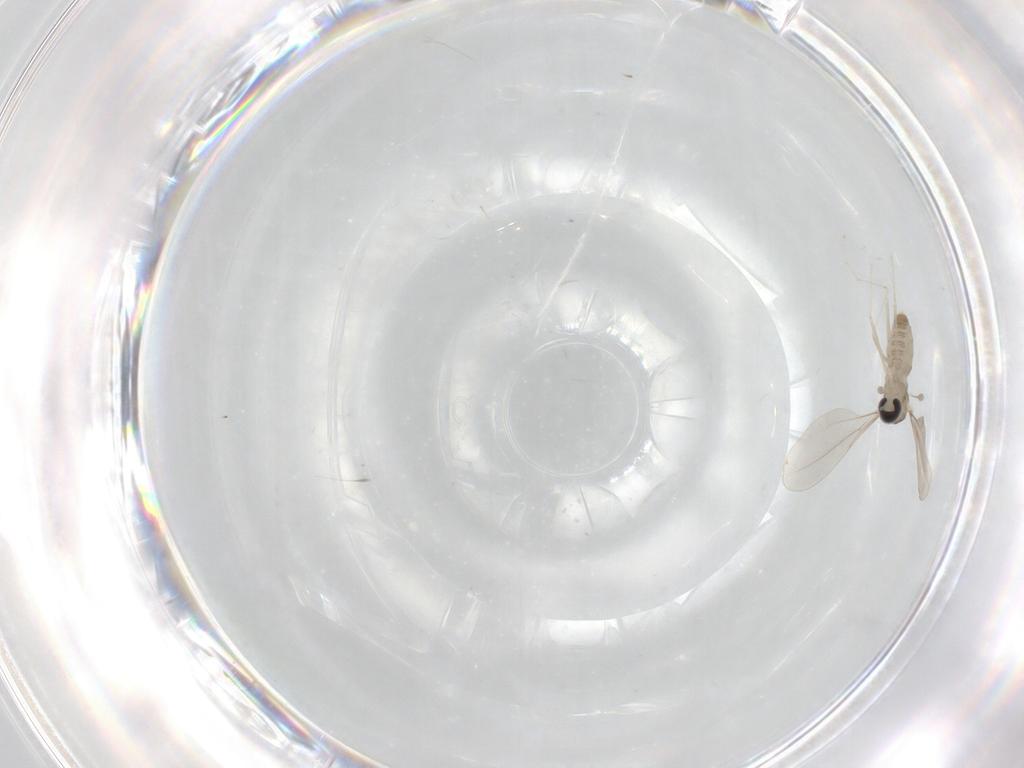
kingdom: Animalia
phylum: Arthropoda
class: Insecta
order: Diptera
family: Cecidomyiidae
